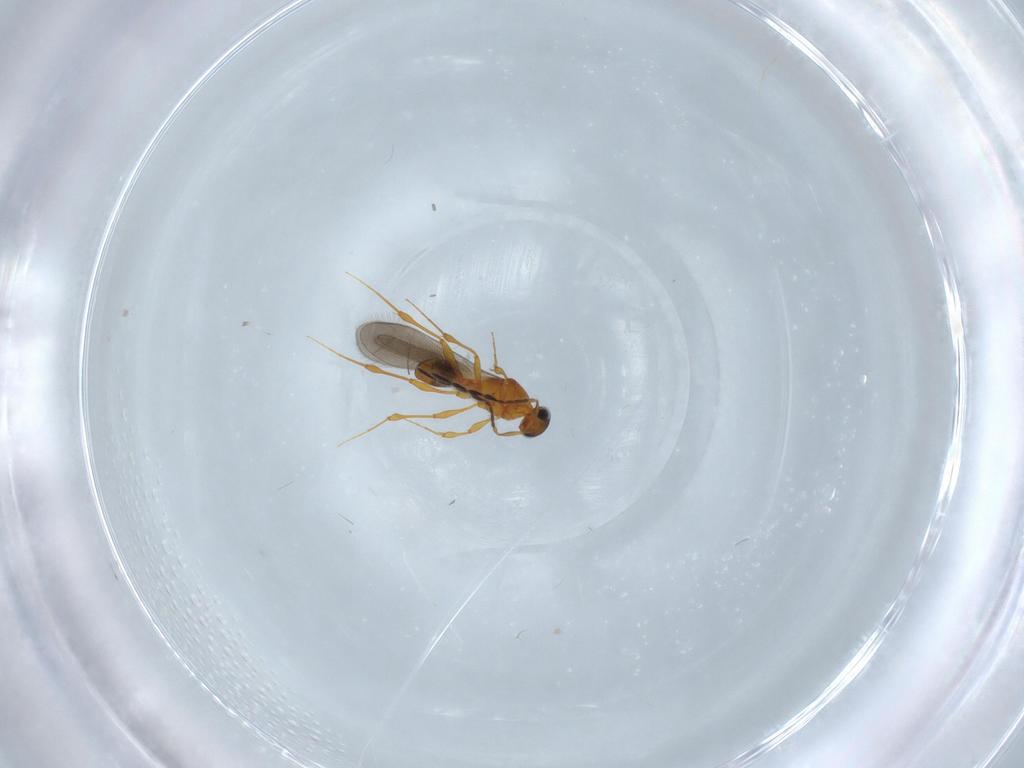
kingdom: Animalia
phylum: Arthropoda
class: Insecta
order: Hymenoptera
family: Platygastridae
